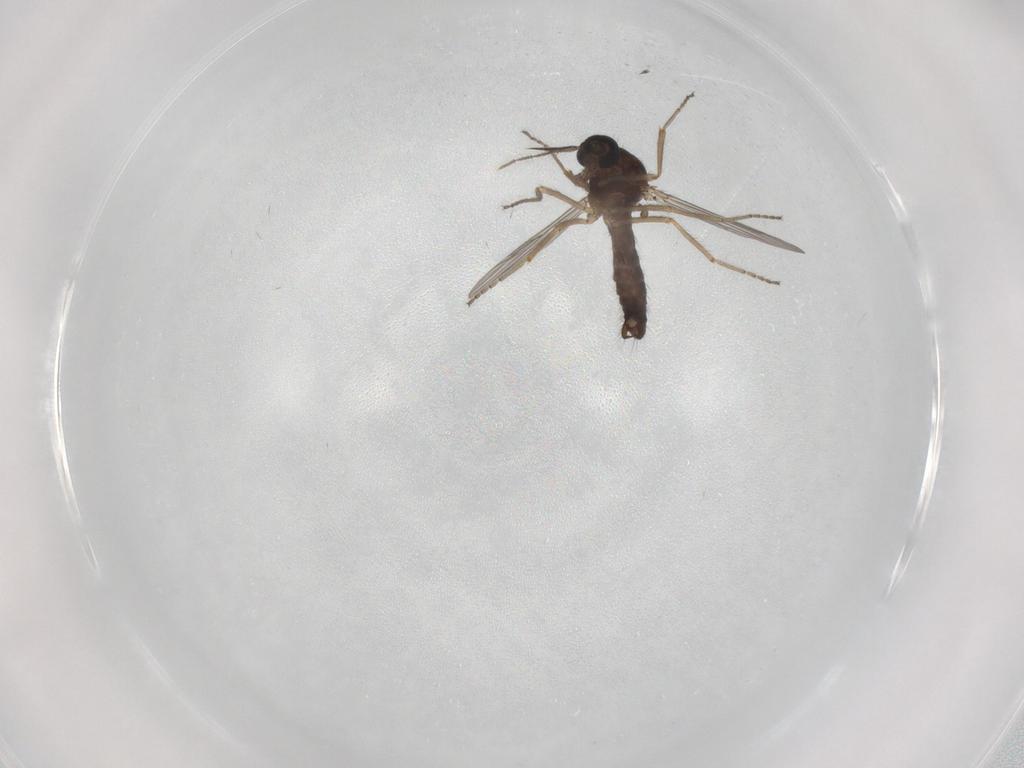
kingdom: Animalia
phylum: Arthropoda
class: Insecta
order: Diptera
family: Ceratopogonidae
